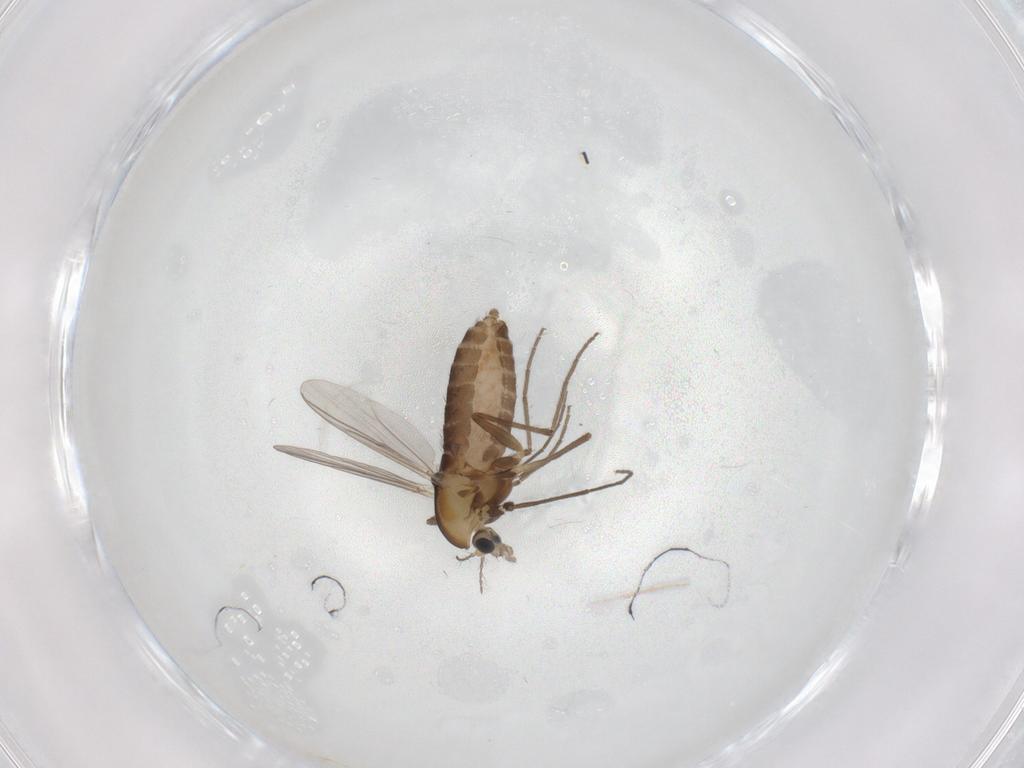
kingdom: Animalia
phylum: Arthropoda
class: Insecta
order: Diptera
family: Chironomidae
